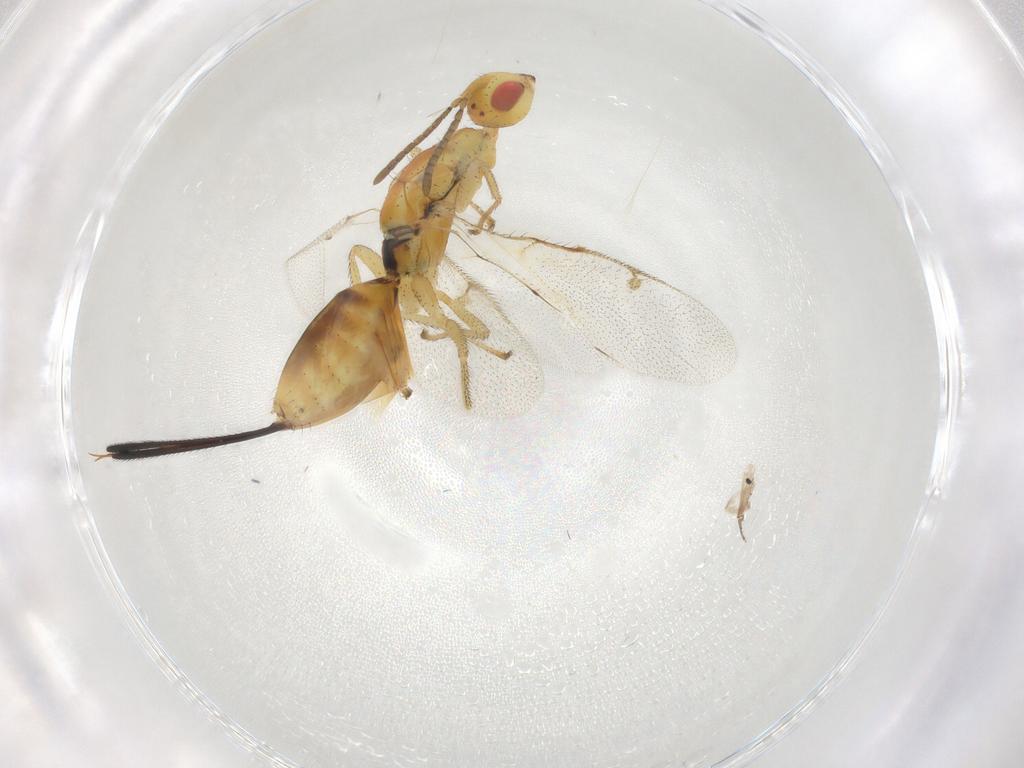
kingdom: Animalia
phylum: Arthropoda
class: Insecta
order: Hymenoptera
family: Megastigmidae
